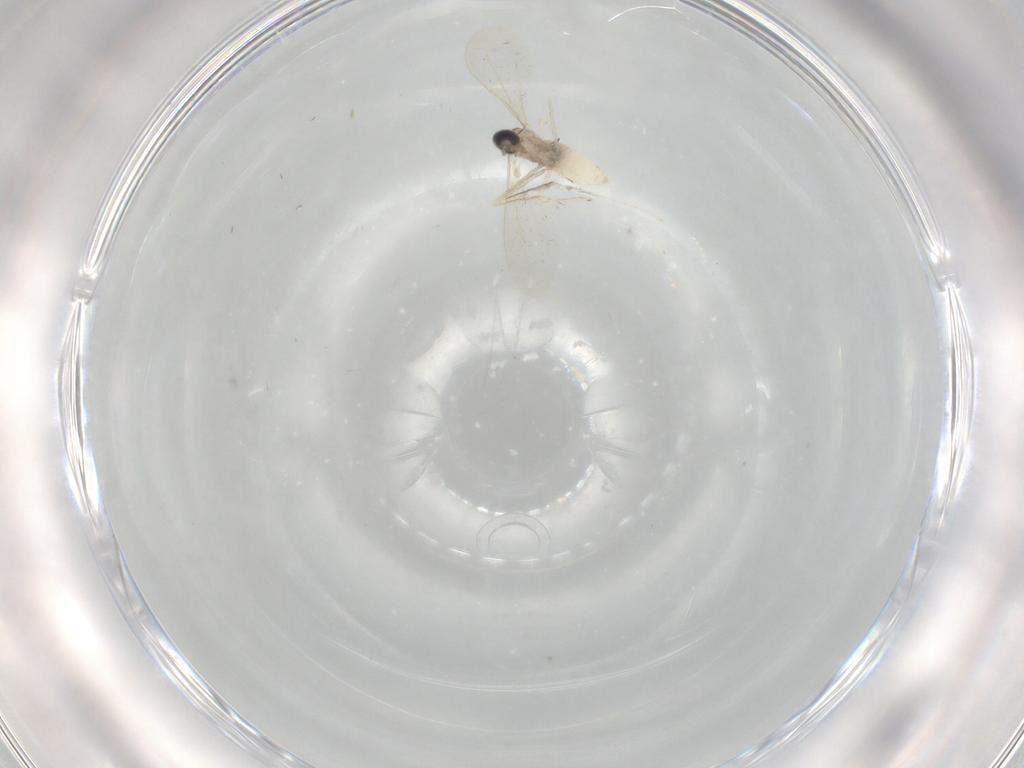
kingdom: Animalia
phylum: Arthropoda
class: Insecta
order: Diptera
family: Cecidomyiidae
